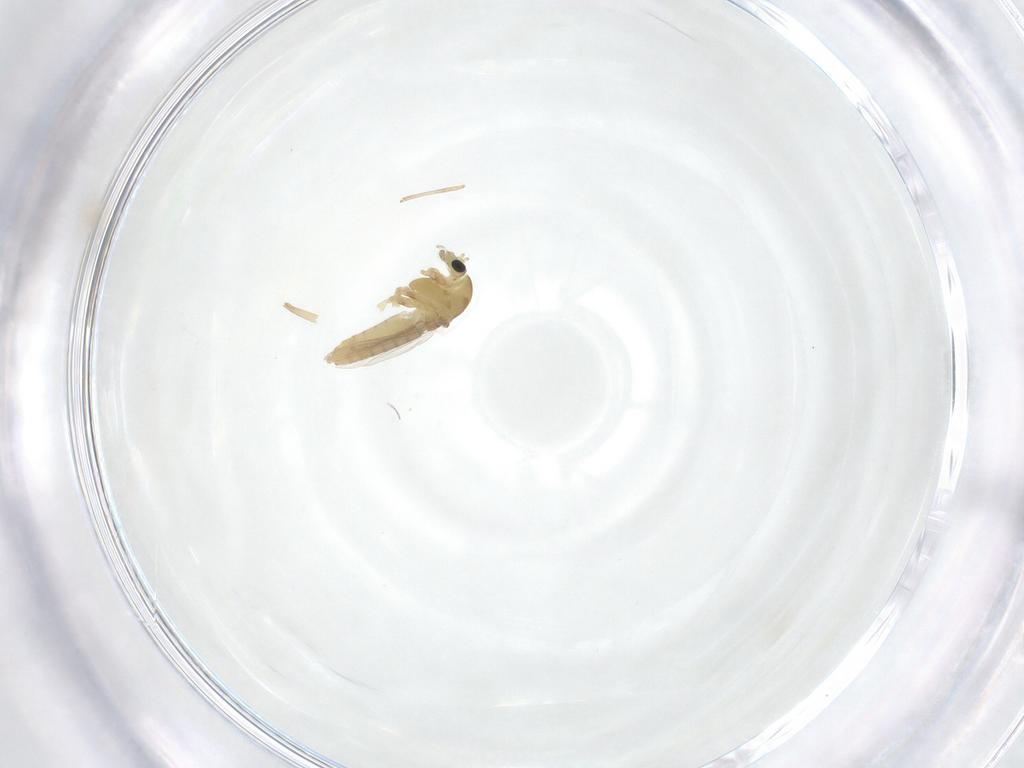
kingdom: Animalia
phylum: Arthropoda
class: Insecta
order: Diptera
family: Chironomidae
